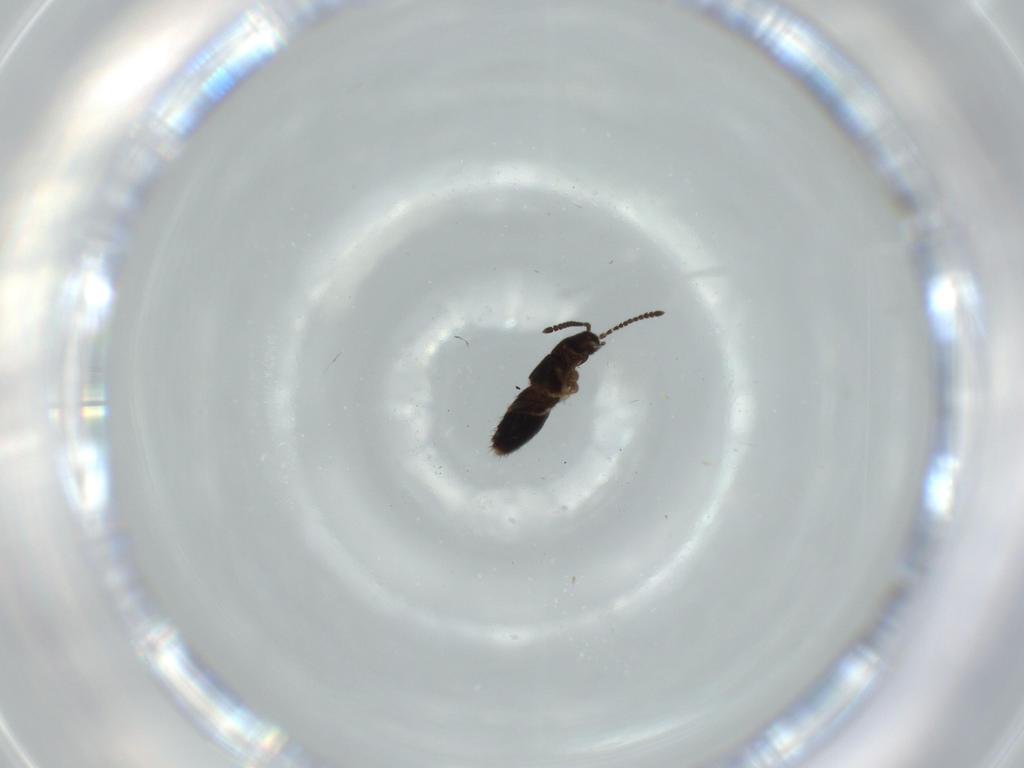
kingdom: Animalia
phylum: Arthropoda
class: Insecta
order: Coleoptera
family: Staphylinidae
